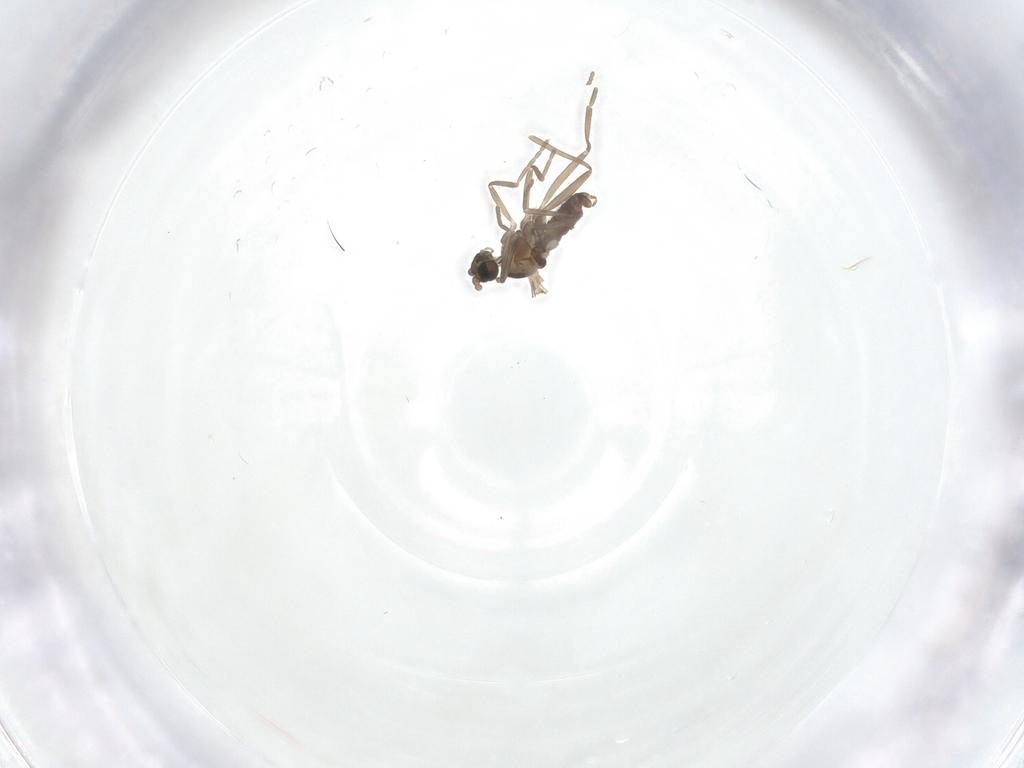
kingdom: Animalia
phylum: Arthropoda
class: Insecta
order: Diptera
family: Cecidomyiidae
